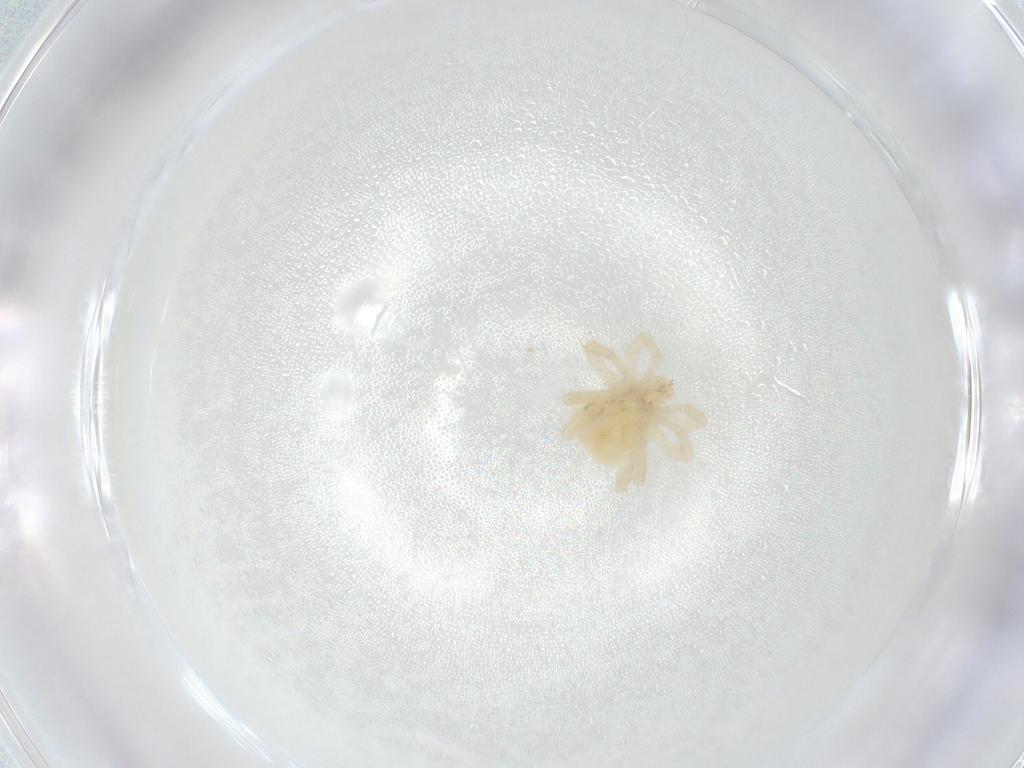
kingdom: Animalia
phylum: Arthropoda
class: Arachnida
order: Trombidiformes
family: Anystidae
